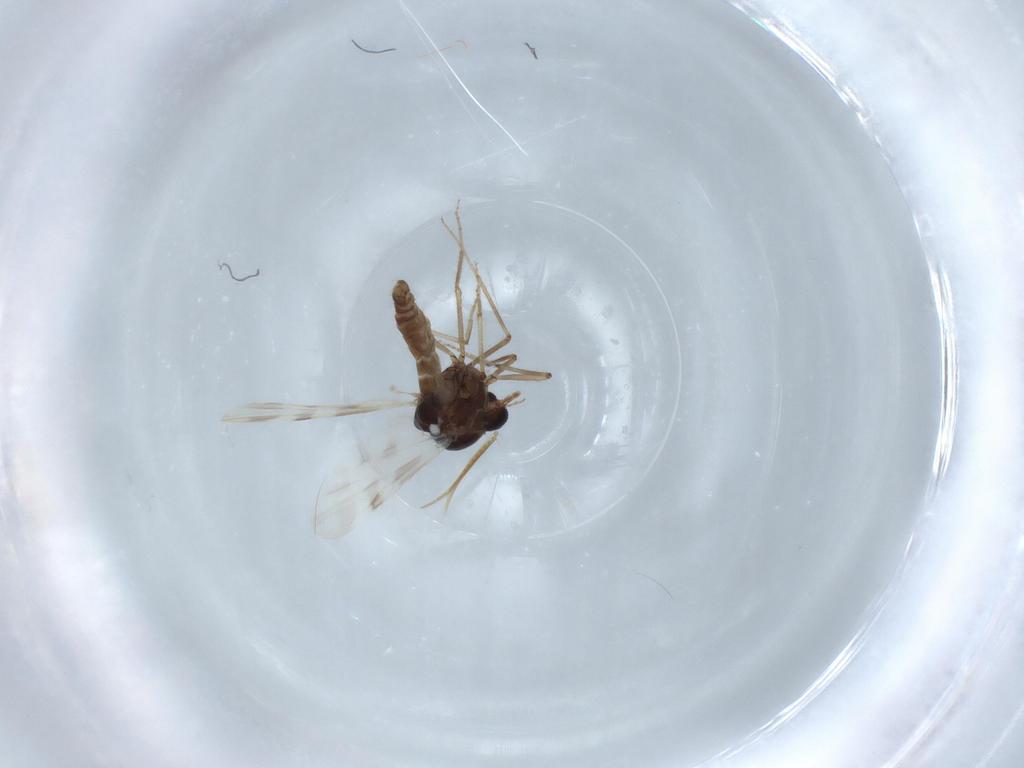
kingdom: Animalia
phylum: Arthropoda
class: Insecta
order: Diptera
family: Ceratopogonidae
